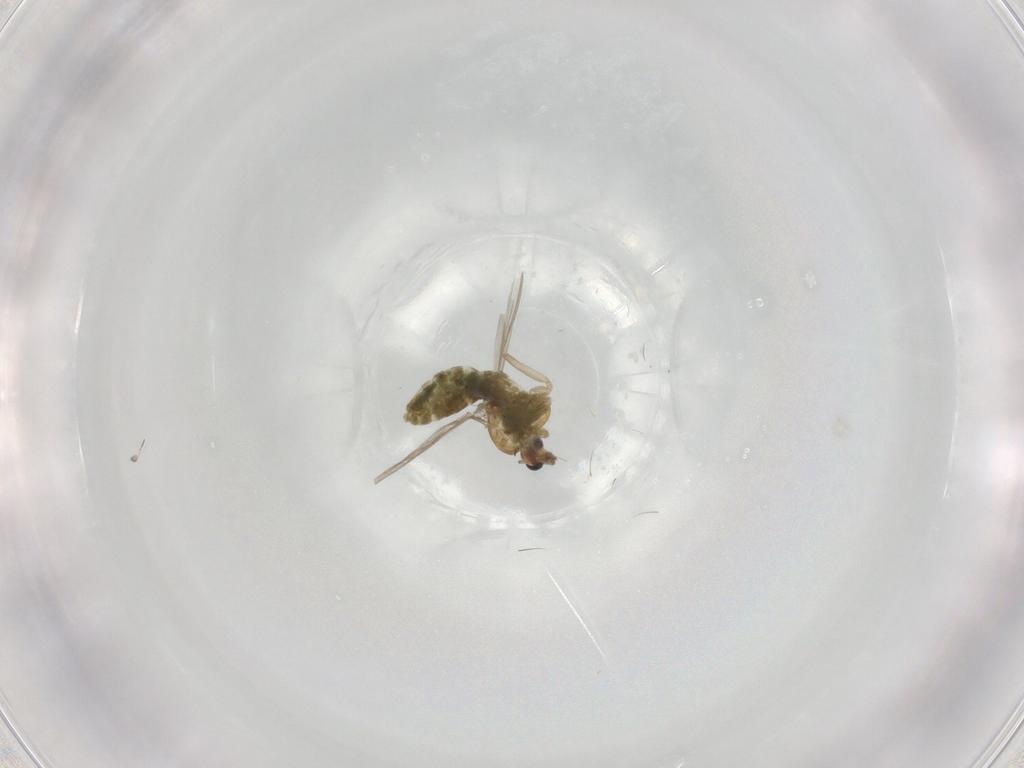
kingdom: Animalia
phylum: Arthropoda
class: Insecta
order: Diptera
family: Chironomidae
